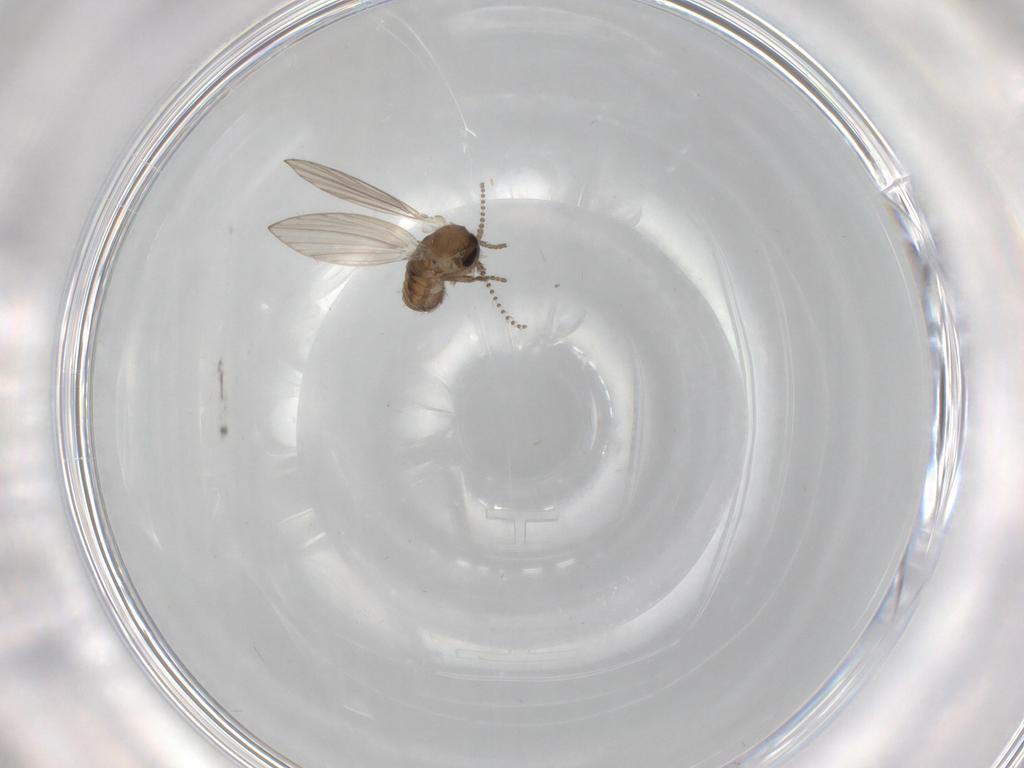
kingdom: Animalia
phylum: Arthropoda
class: Insecta
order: Diptera
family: Psychodidae
